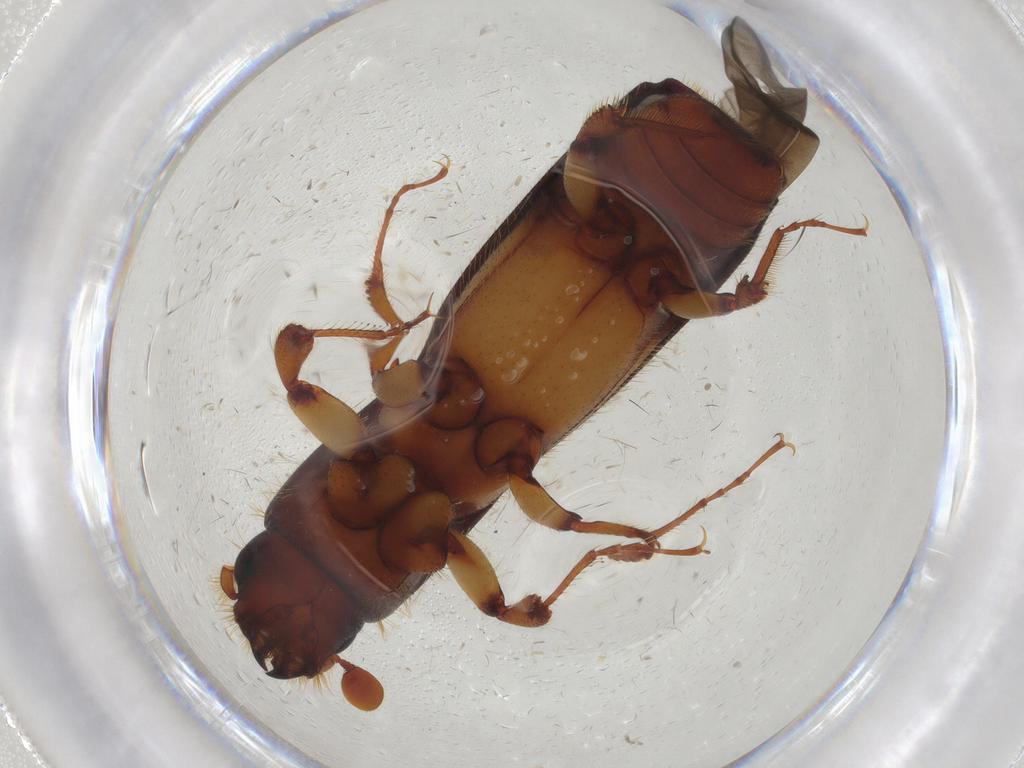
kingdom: Animalia
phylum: Arthropoda
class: Insecta
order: Coleoptera
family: Curculionidae
